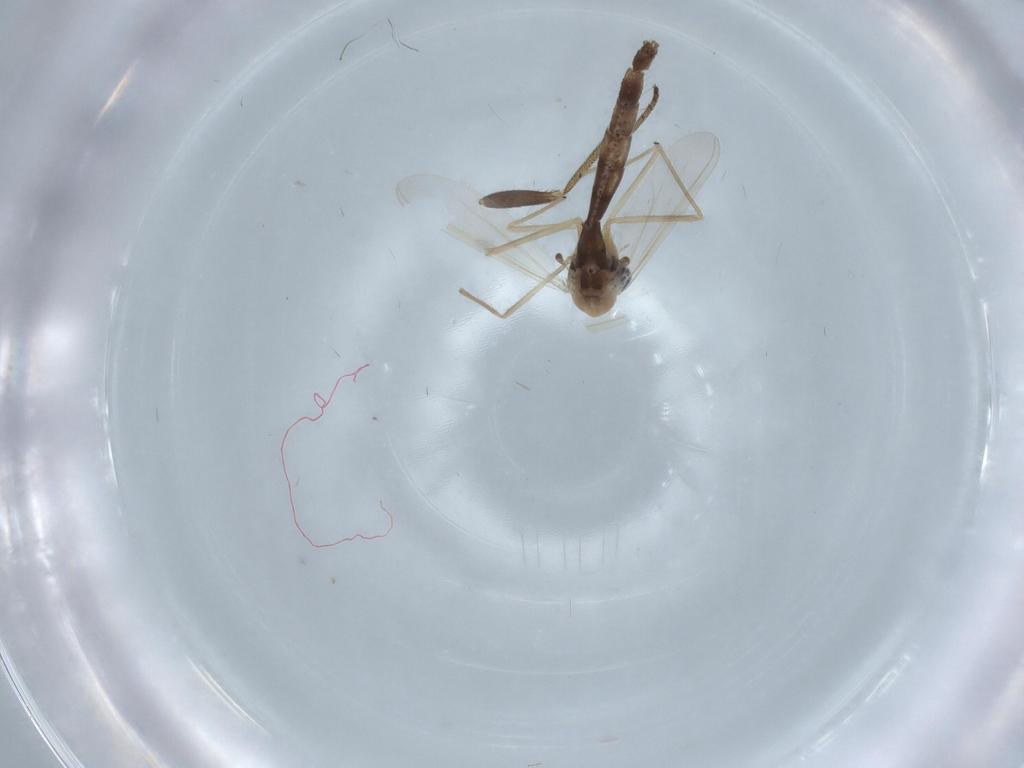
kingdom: Animalia
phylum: Arthropoda
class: Insecta
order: Diptera
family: Chironomidae
